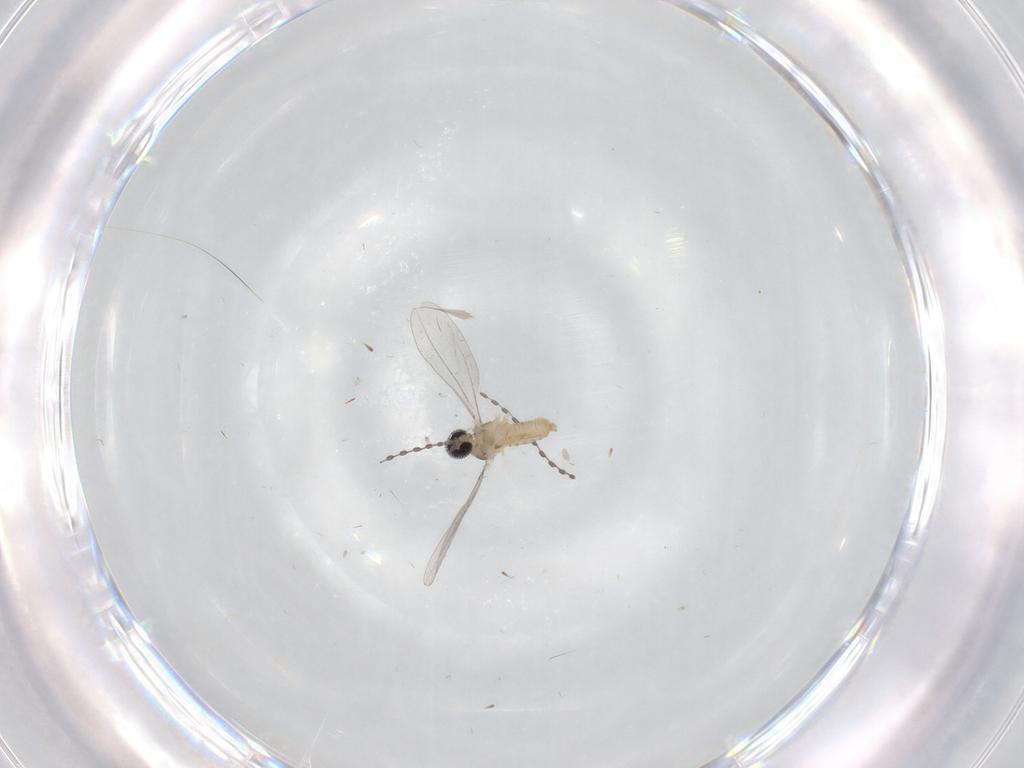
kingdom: Animalia
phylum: Arthropoda
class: Insecta
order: Diptera
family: Cecidomyiidae
